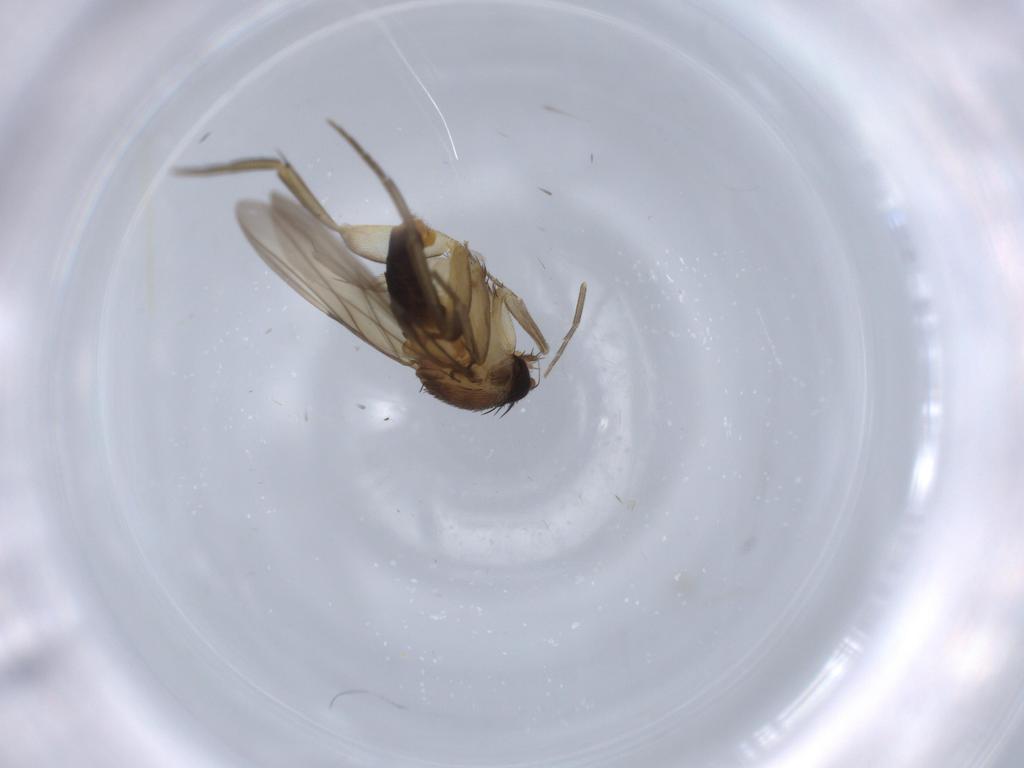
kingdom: Animalia
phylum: Arthropoda
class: Insecta
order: Diptera
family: Phoridae
